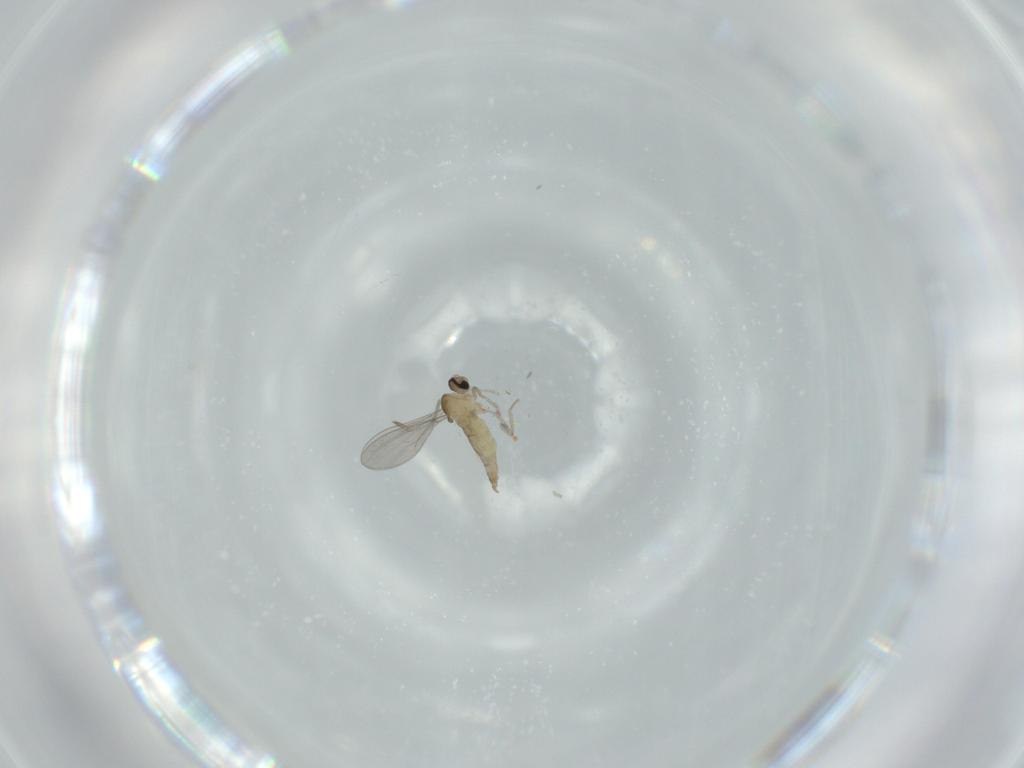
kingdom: Animalia
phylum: Arthropoda
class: Insecta
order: Diptera
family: Cecidomyiidae
